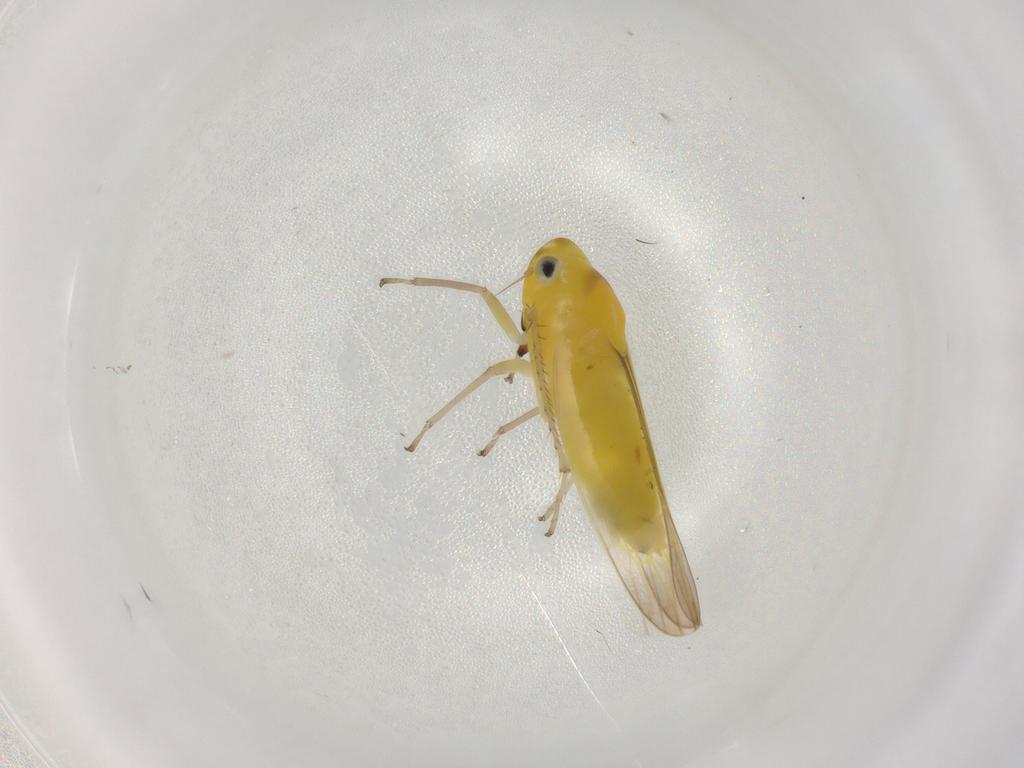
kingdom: Animalia
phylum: Arthropoda
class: Insecta
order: Hemiptera
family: Cicadellidae
